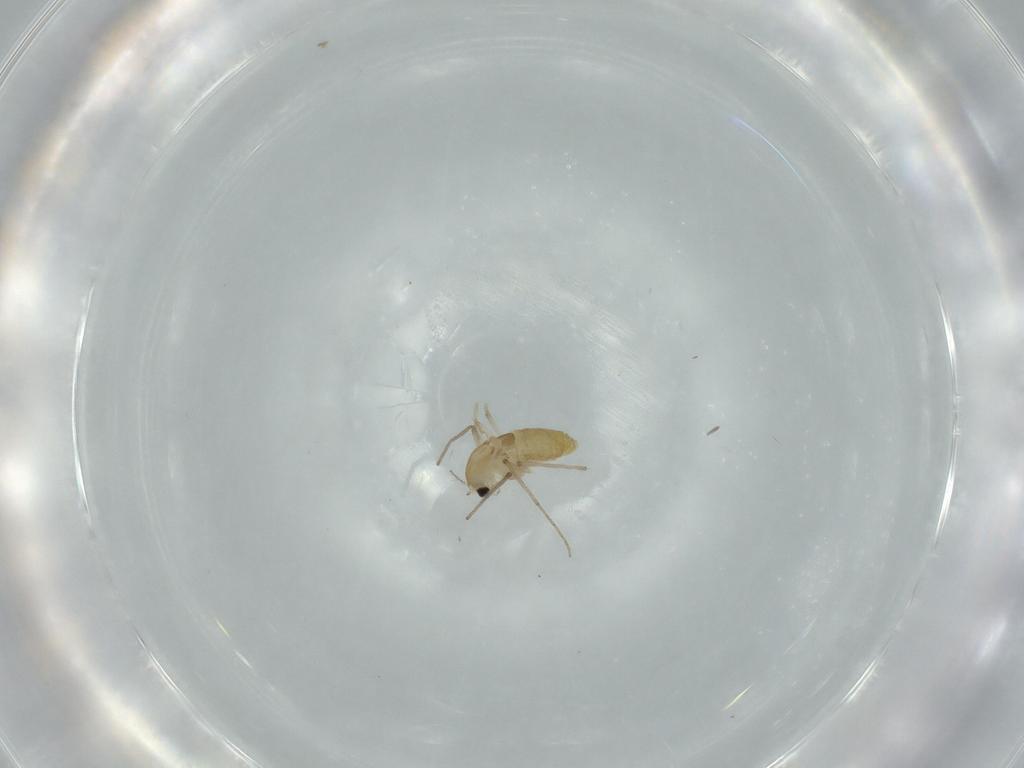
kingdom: Animalia
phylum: Arthropoda
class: Insecta
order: Diptera
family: Chironomidae
